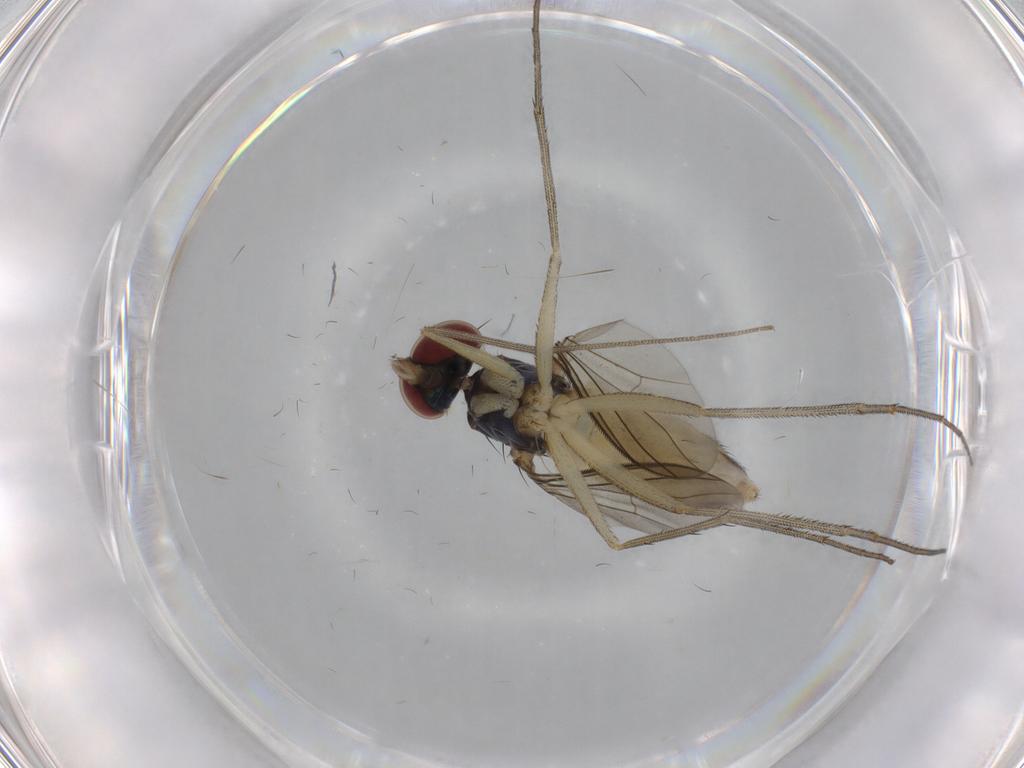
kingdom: Animalia
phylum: Arthropoda
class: Insecta
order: Diptera
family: Dolichopodidae
